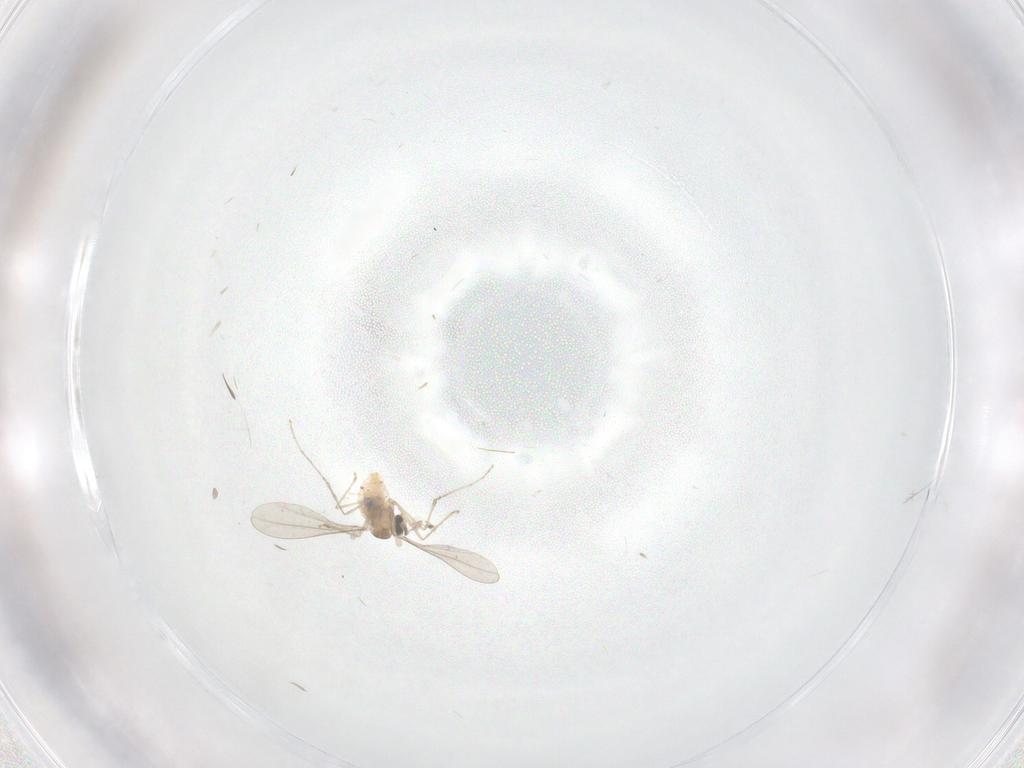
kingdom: Animalia
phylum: Arthropoda
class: Insecta
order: Diptera
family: Cecidomyiidae
